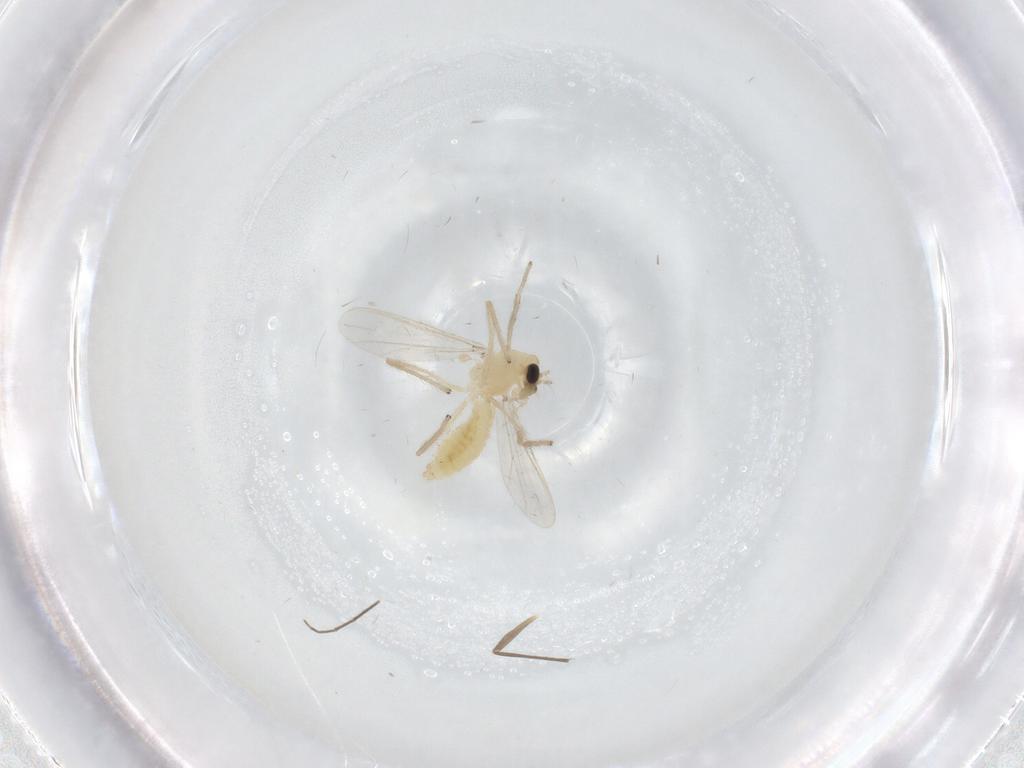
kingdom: Animalia
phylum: Arthropoda
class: Insecta
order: Diptera
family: Chironomidae
